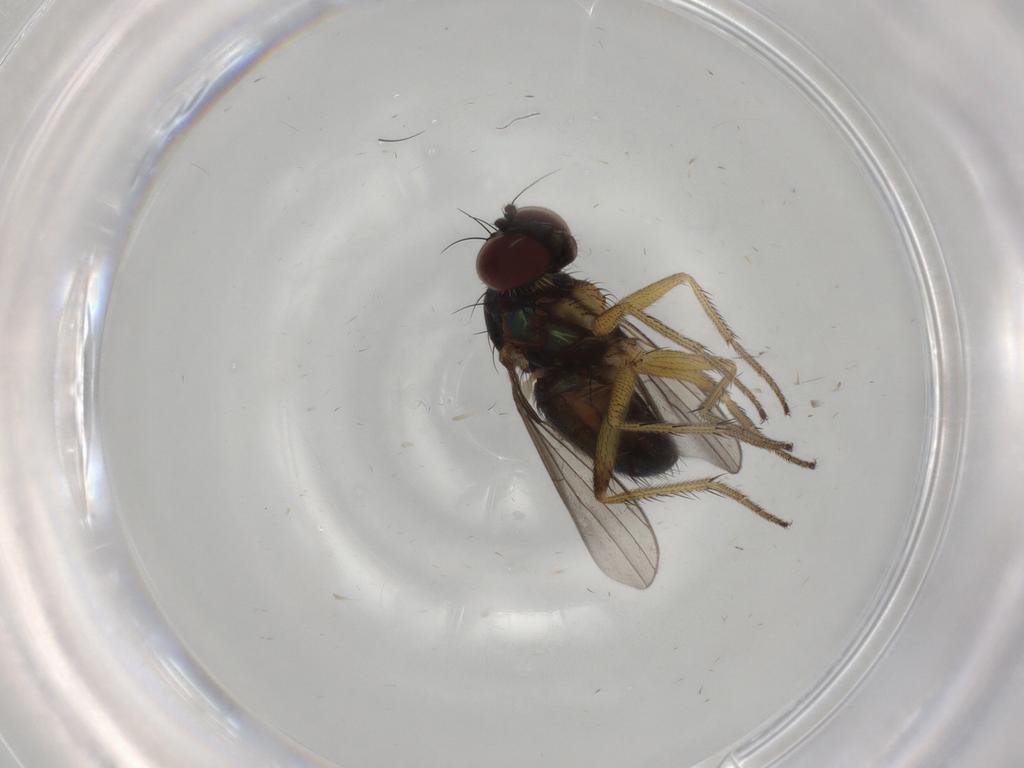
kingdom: Animalia
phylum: Arthropoda
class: Insecta
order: Diptera
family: Dolichopodidae
